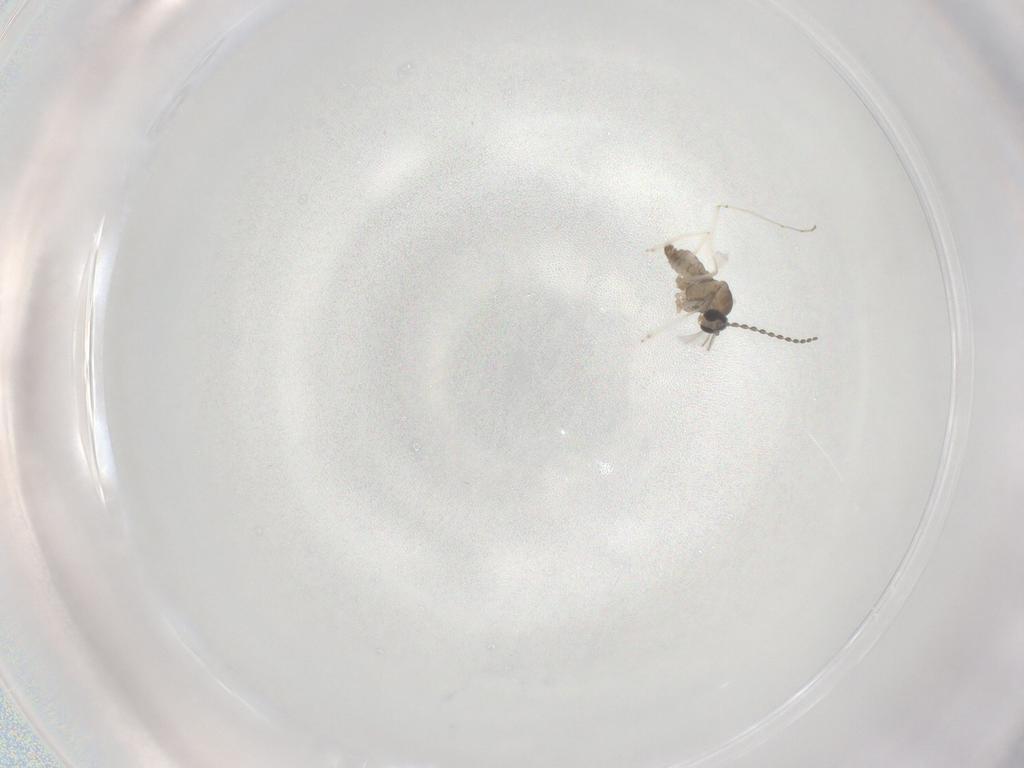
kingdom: Animalia
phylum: Arthropoda
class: Insecta
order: Diptera
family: Cecidomyiidae
